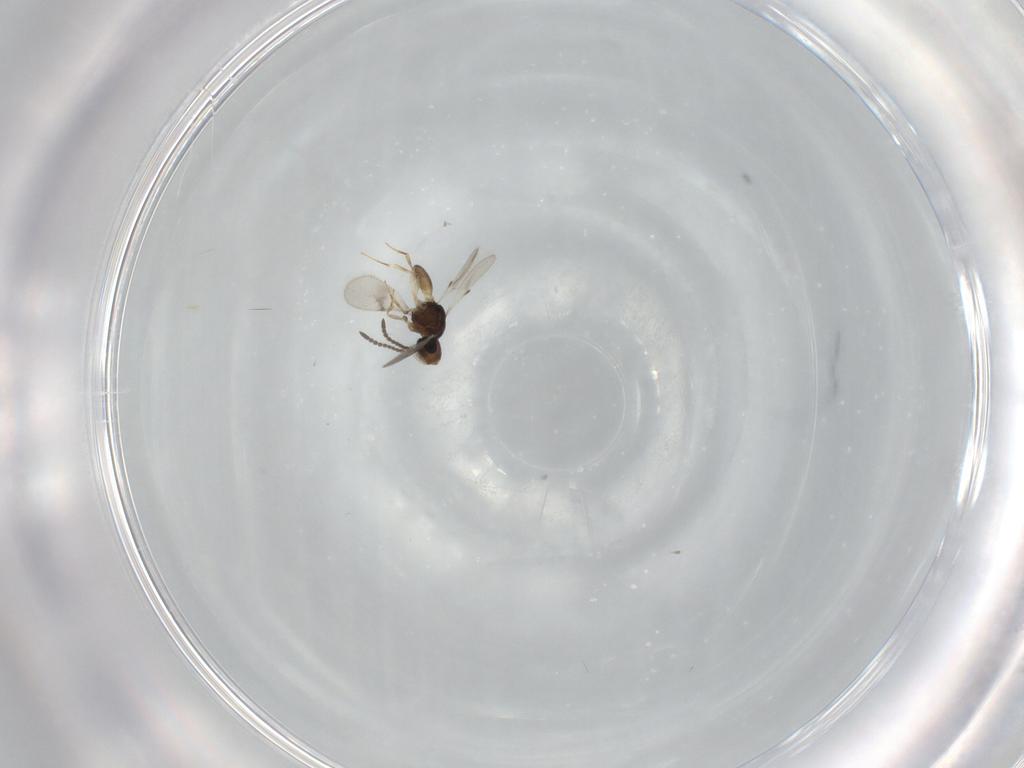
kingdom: Animalia
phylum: Arthropoda
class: Insecta
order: Hymenoptera
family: Scelionidae
